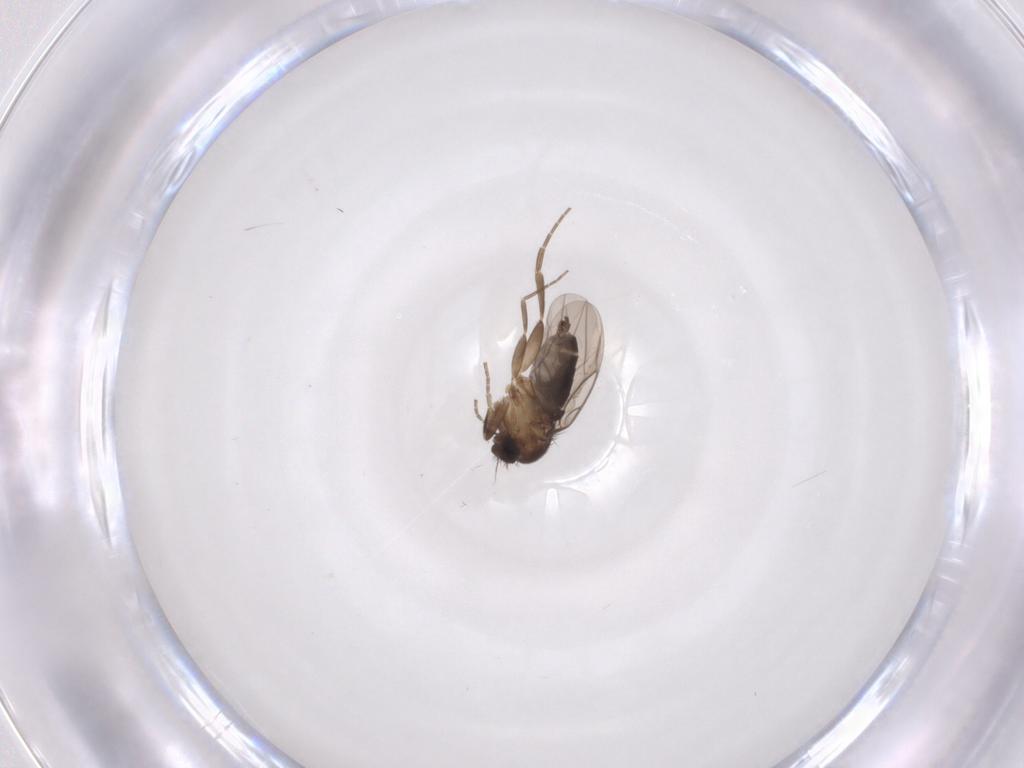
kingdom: Animalia
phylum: Arthropoda
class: Insecta
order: Diptera
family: Phoridae
